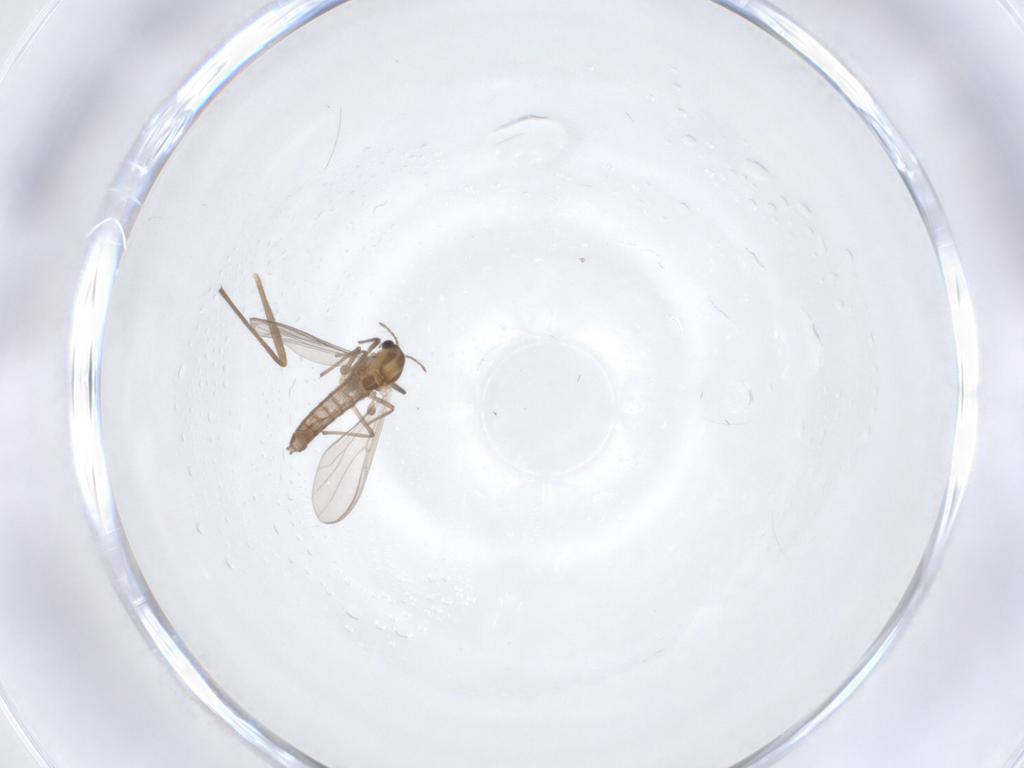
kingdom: Animalia
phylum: Arthropoda
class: Insecta
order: Diptera
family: Chironomidae
